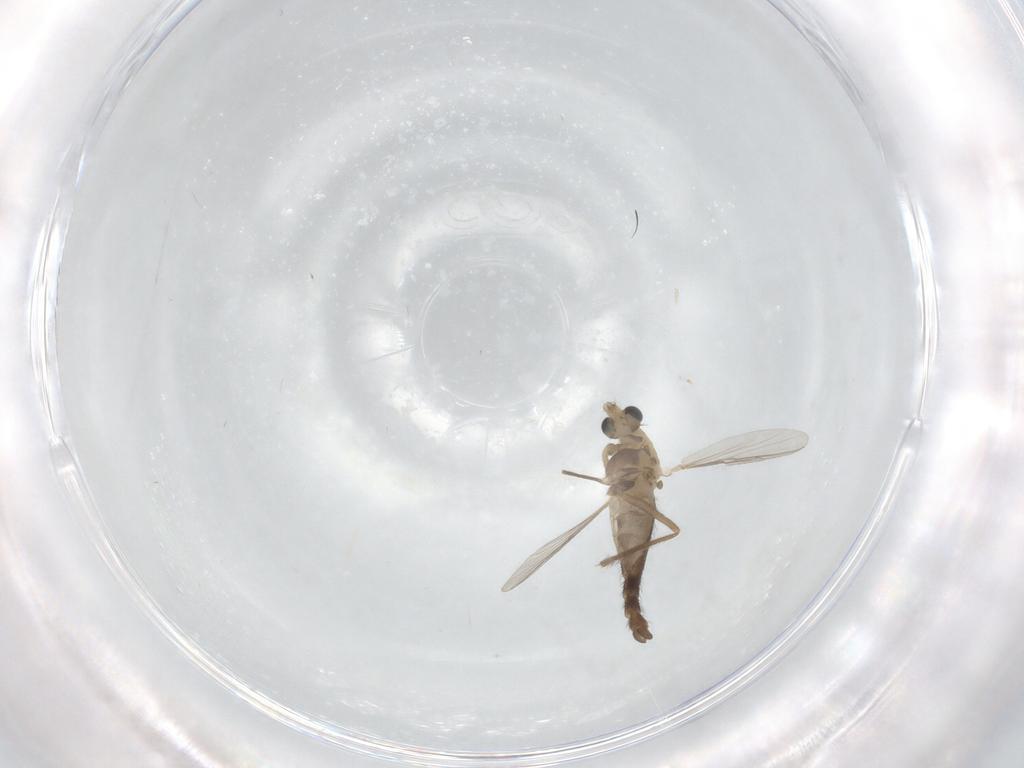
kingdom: Animalia
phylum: Arthropoda
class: Insecta
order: Diptera
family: Chironomidae
